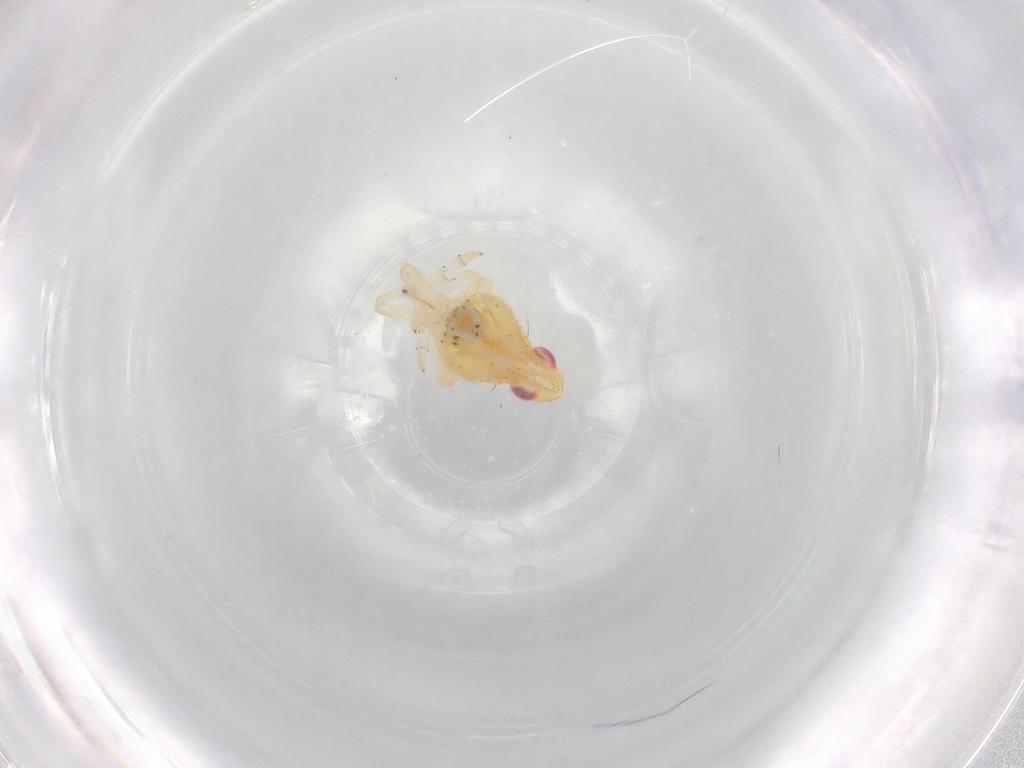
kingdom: Animalia
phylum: Arthropoda
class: Insecta
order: Hemiptera
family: Fulgoroidea_incertae_sedis
